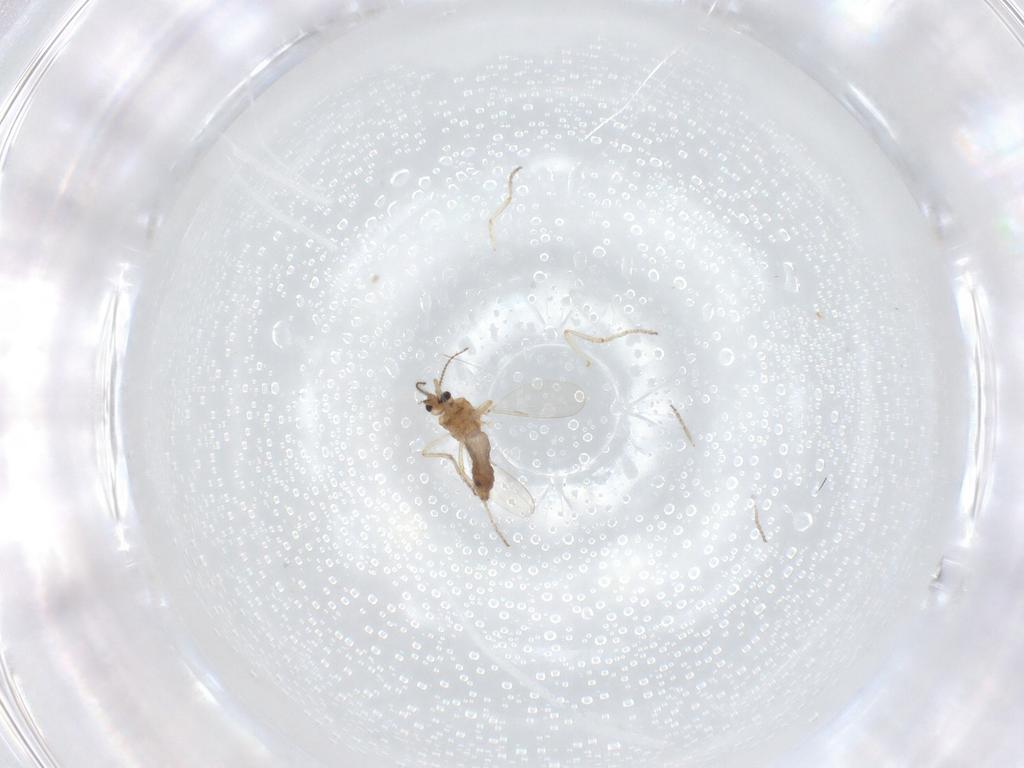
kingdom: Animalia
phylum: Arthropoda
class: Insecta
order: Diptera
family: Ceratopogonidae
